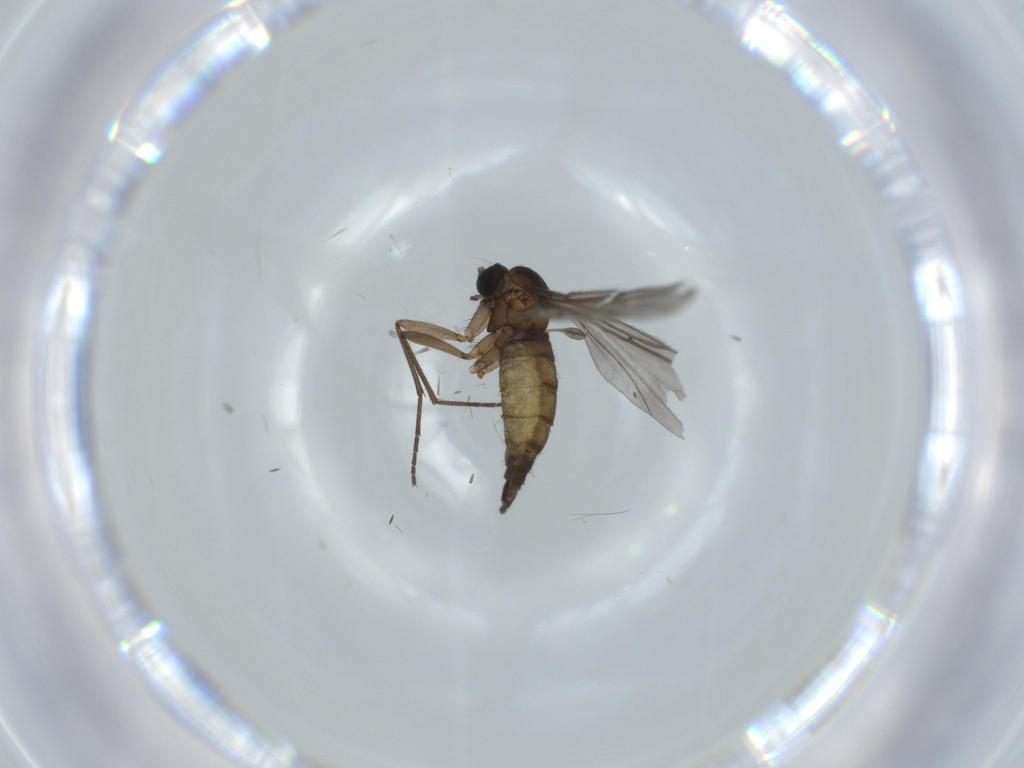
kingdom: Animalia
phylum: Arthropoda
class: Insecta
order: Diptera
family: Sciaridae
